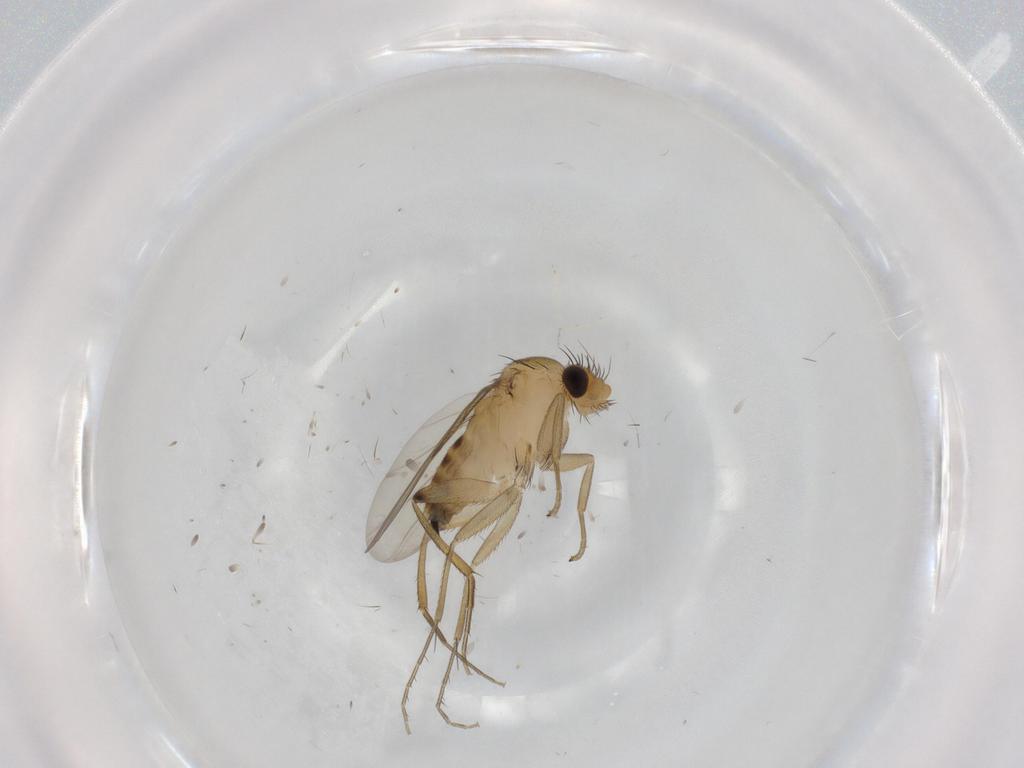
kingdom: Animalia
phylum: Arthropoda
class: Insecta
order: Diptera
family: Phoridae
